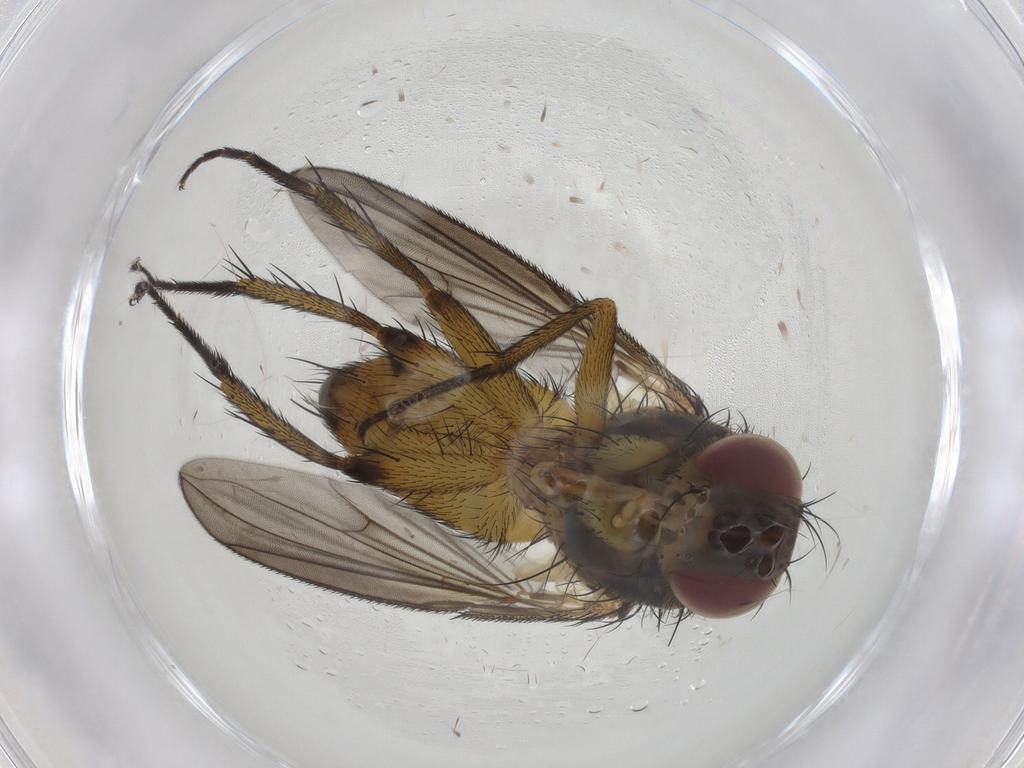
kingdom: Animalia
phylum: Arthropoda
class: Insecta
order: Diptera
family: Tachinidae
